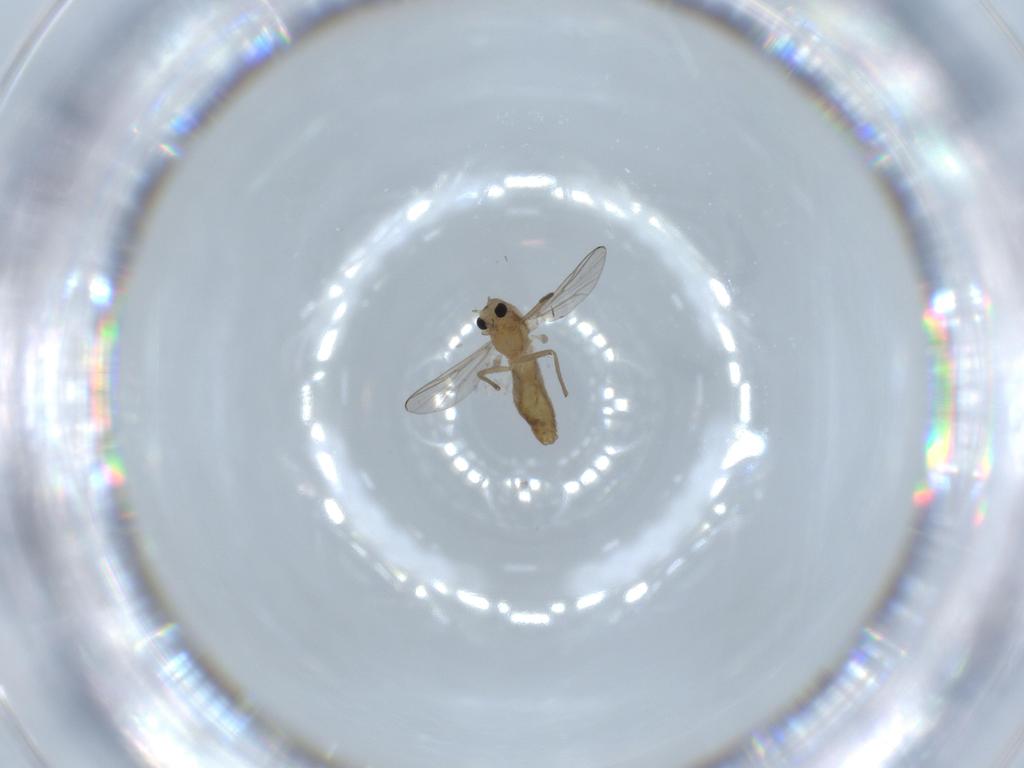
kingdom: Animalia
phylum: Arthropoda
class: Insecta
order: Diptera
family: Chironomidae
